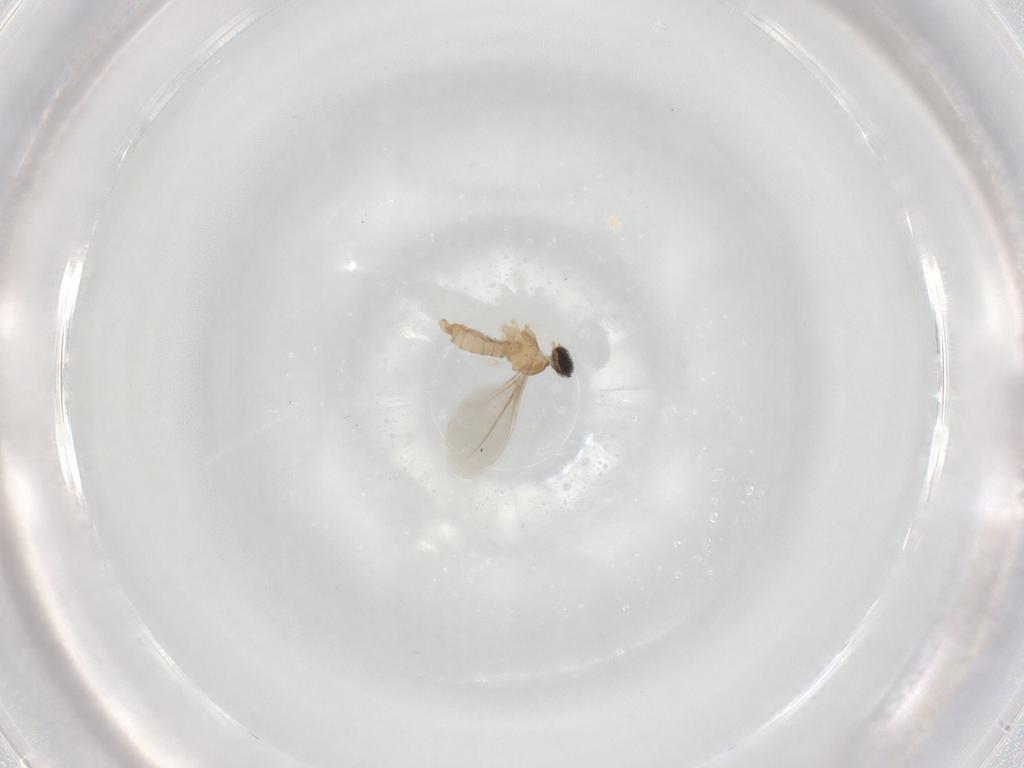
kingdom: Animalia
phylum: Arthropoda
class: Insecta
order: Diptera
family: Cecidomyiidae
